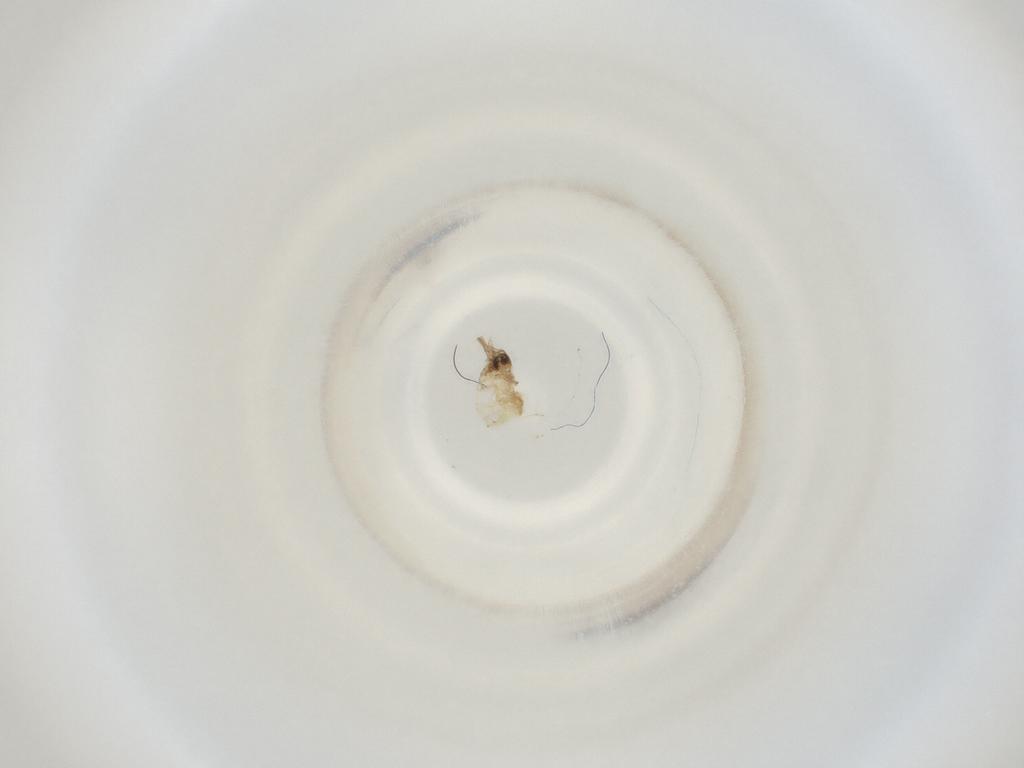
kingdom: Animalia
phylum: Arthropoda
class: Insecta
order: Diptera
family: Cecidomyiidae
